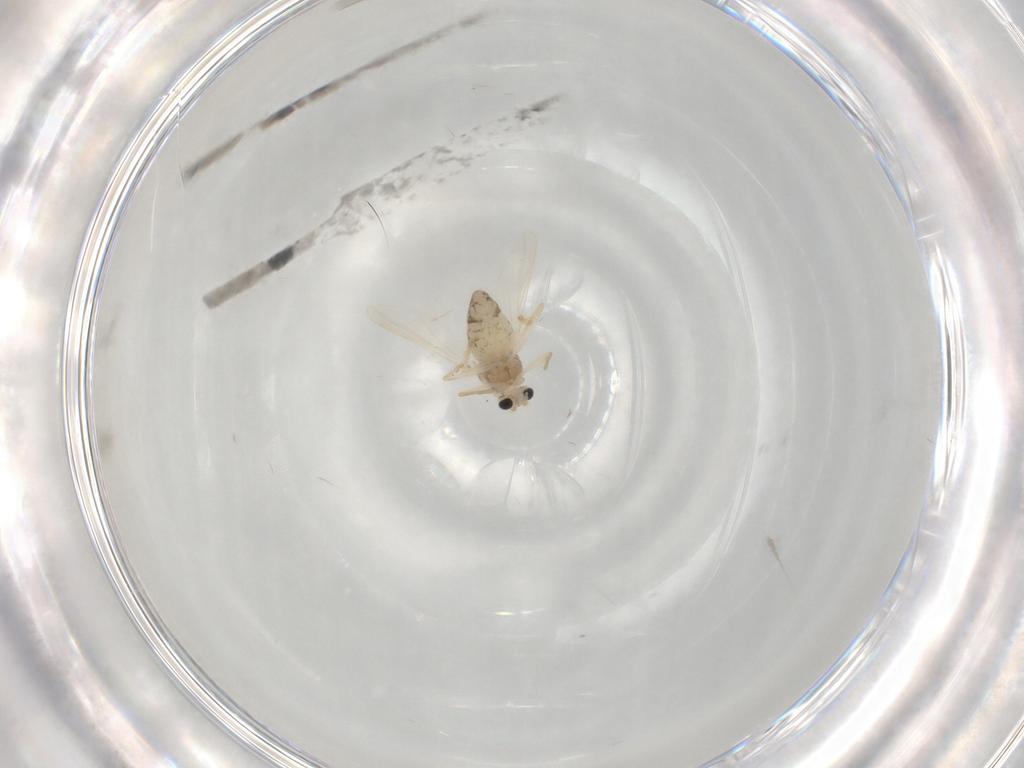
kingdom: Animalia
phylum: Arthropoda
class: Insecta
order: Diptera
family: Chironomidae
